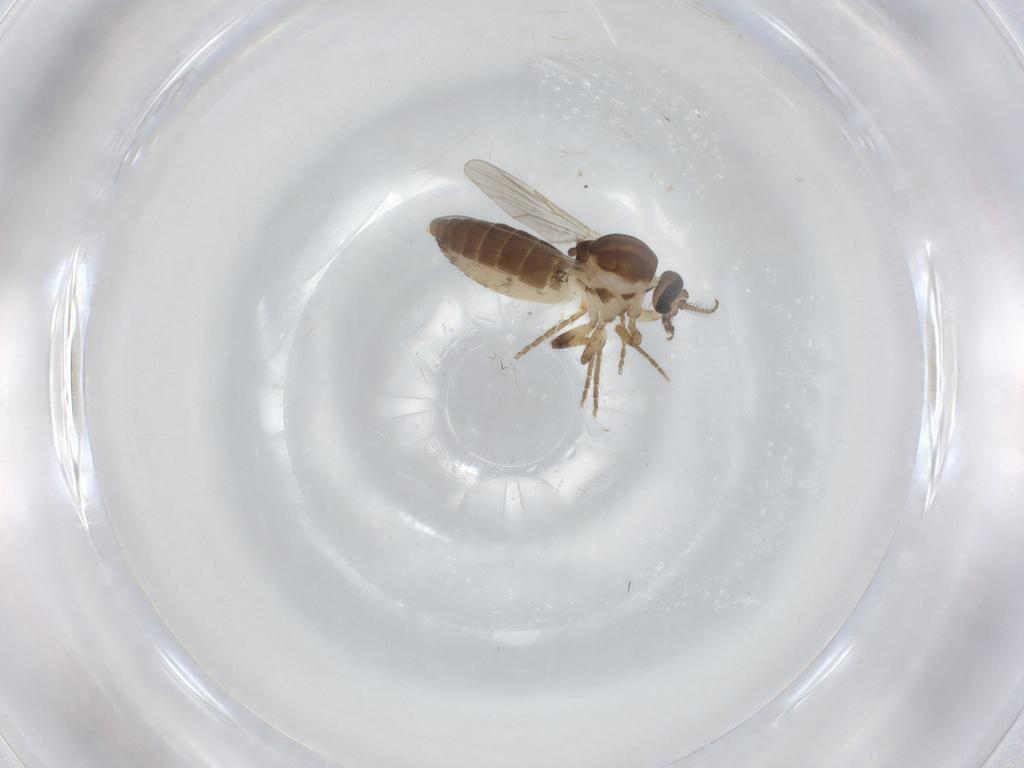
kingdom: Animalia
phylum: Arthropoda
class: Insecta
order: Diptera
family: Ceratopogonidae
